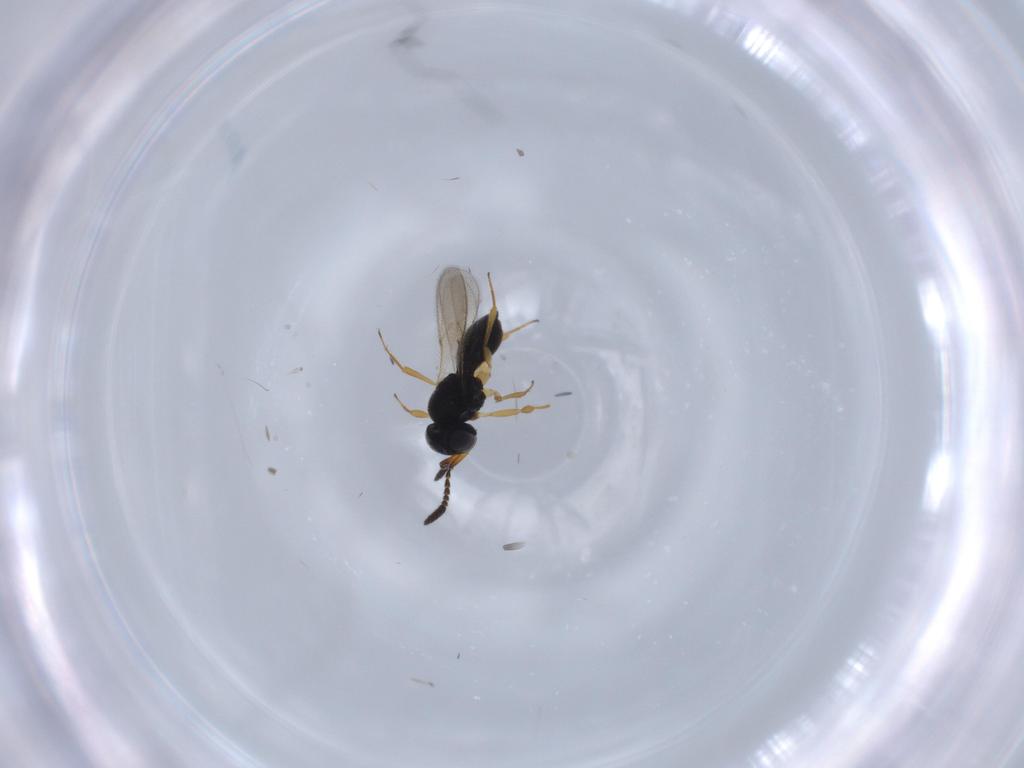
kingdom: Animalia
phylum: Arthropoda
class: Insecta
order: Hymenoptera
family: Scelionidae
